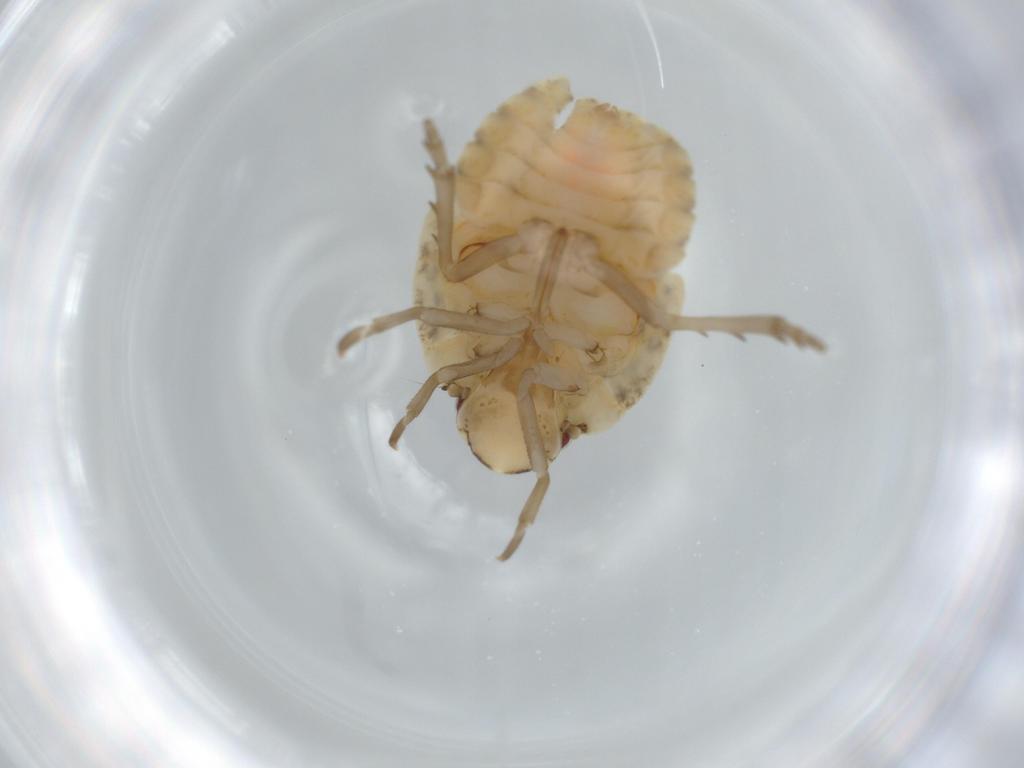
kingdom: Animalia
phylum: Arthropoda
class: Insecta
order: Hemiptera
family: Flatidae
